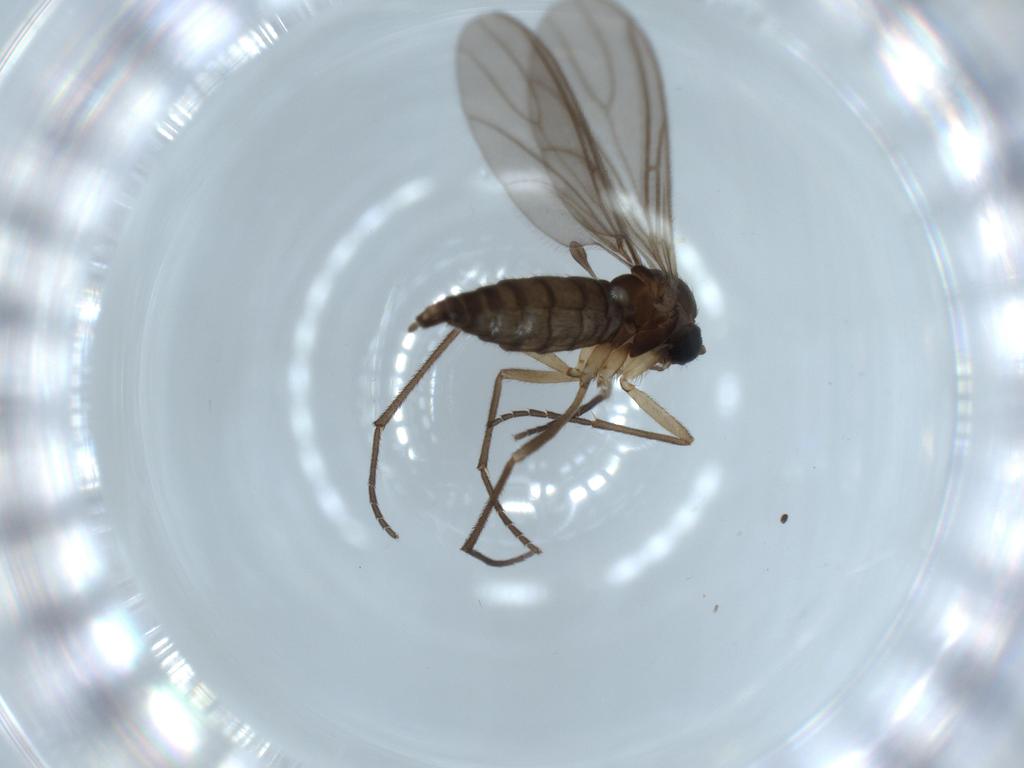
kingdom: Animalia
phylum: Arthropoda
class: Insecta
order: Diptera
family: Sciaridae
